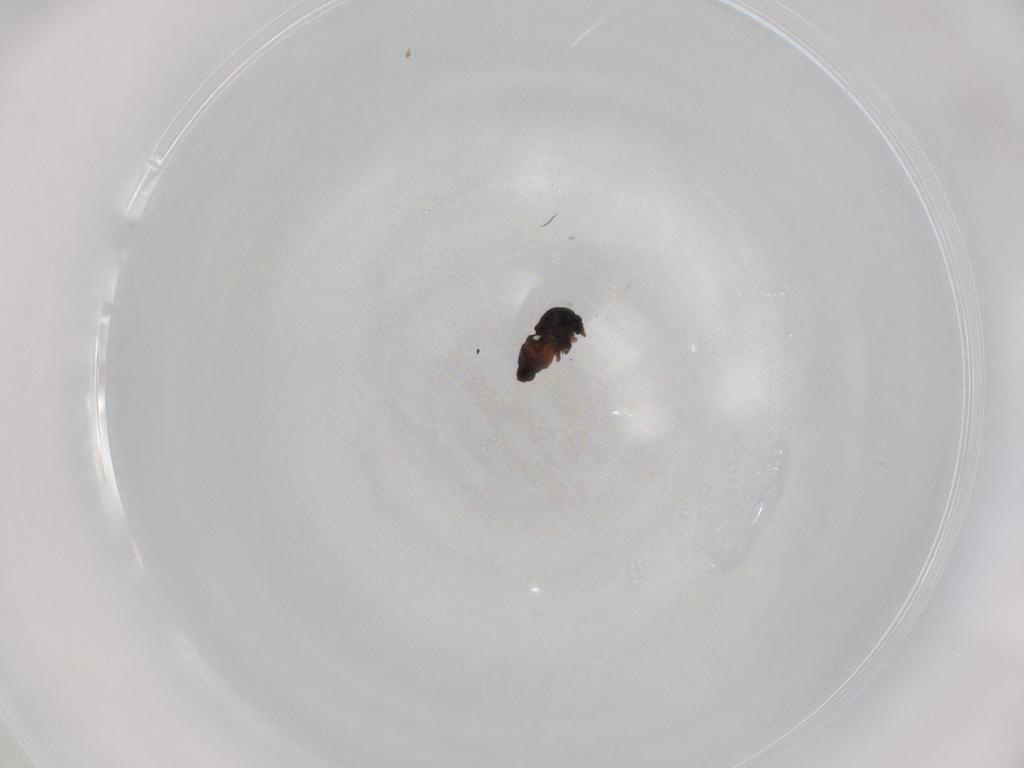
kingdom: Animalia
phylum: Arthropoda
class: Insecta
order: Diptera
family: Ceratopogonidae
